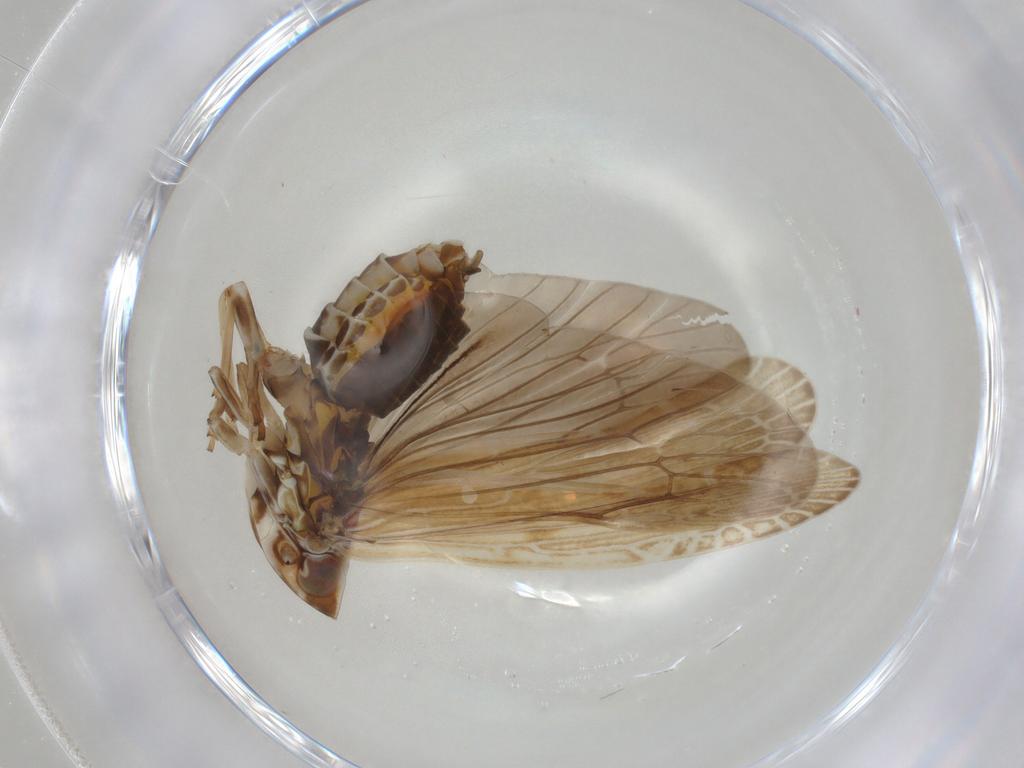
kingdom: Animalia
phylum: Arthropoda
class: Insecta
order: Hemiptera
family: Achilidae
